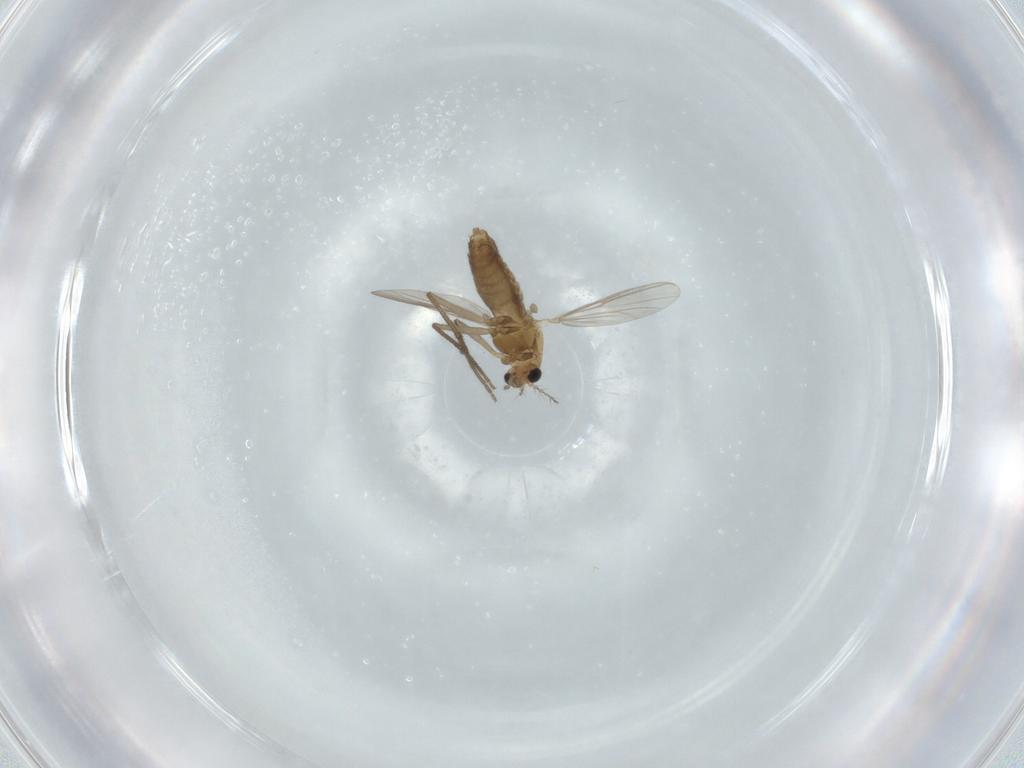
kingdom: Animalia
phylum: Arthropoda
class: Insecta
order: Diptera
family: Chironomidae
